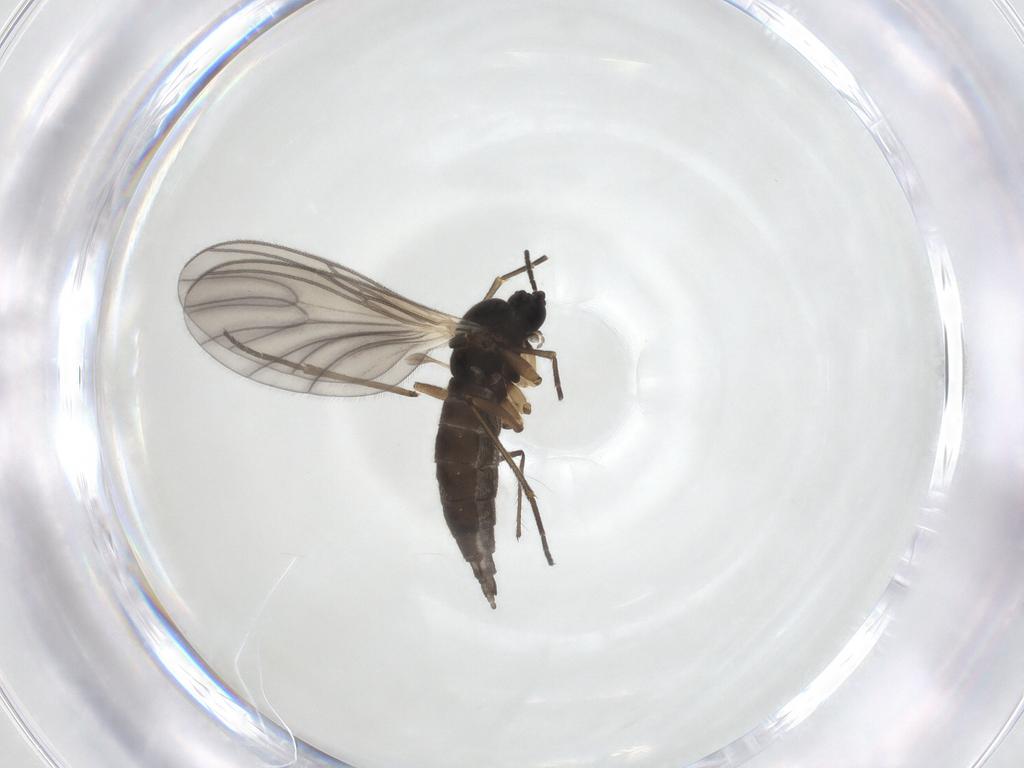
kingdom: Animalia
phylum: Arthropoda
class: Insecta
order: Diptera
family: Sciaridae
